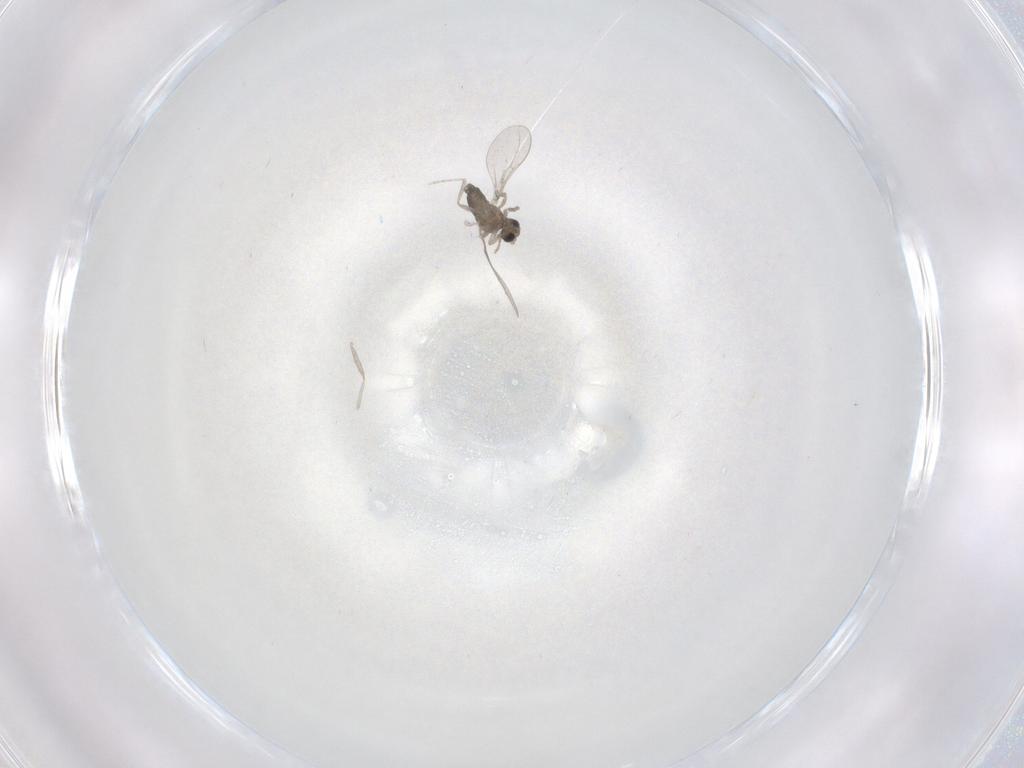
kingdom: Animalia
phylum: Arthropoda
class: Insecta
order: Diptera
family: Cecidomyiidae
